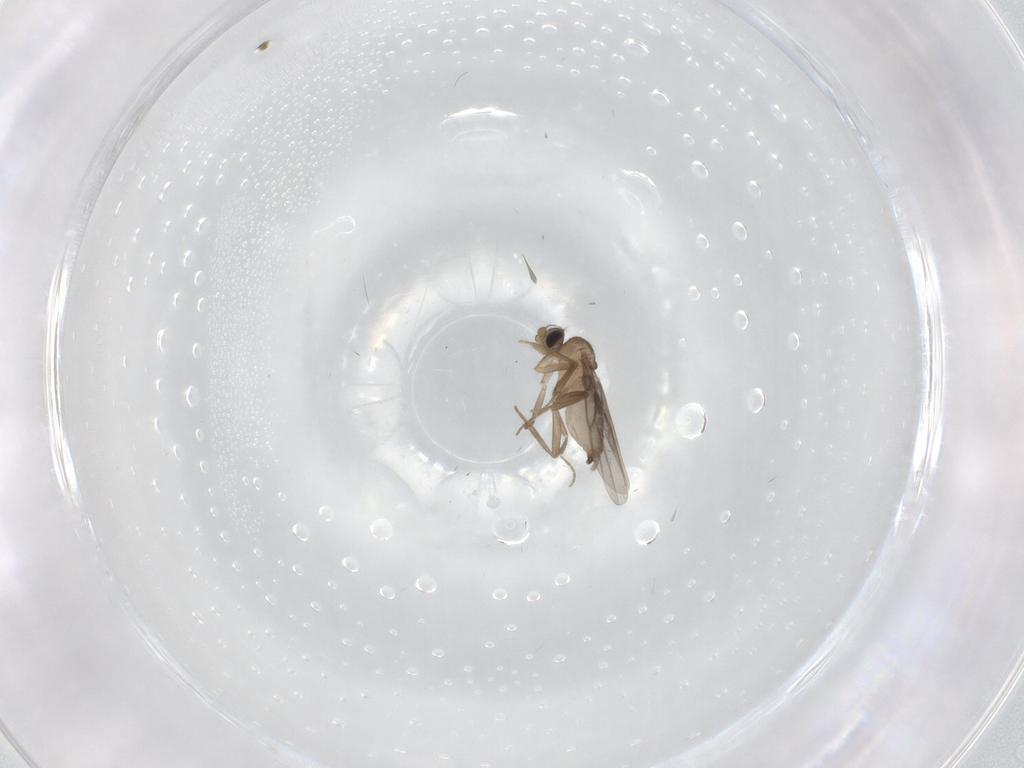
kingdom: Animalia
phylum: Arthropoda
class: Insecta
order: Diptera
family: Cecidomyiidae
